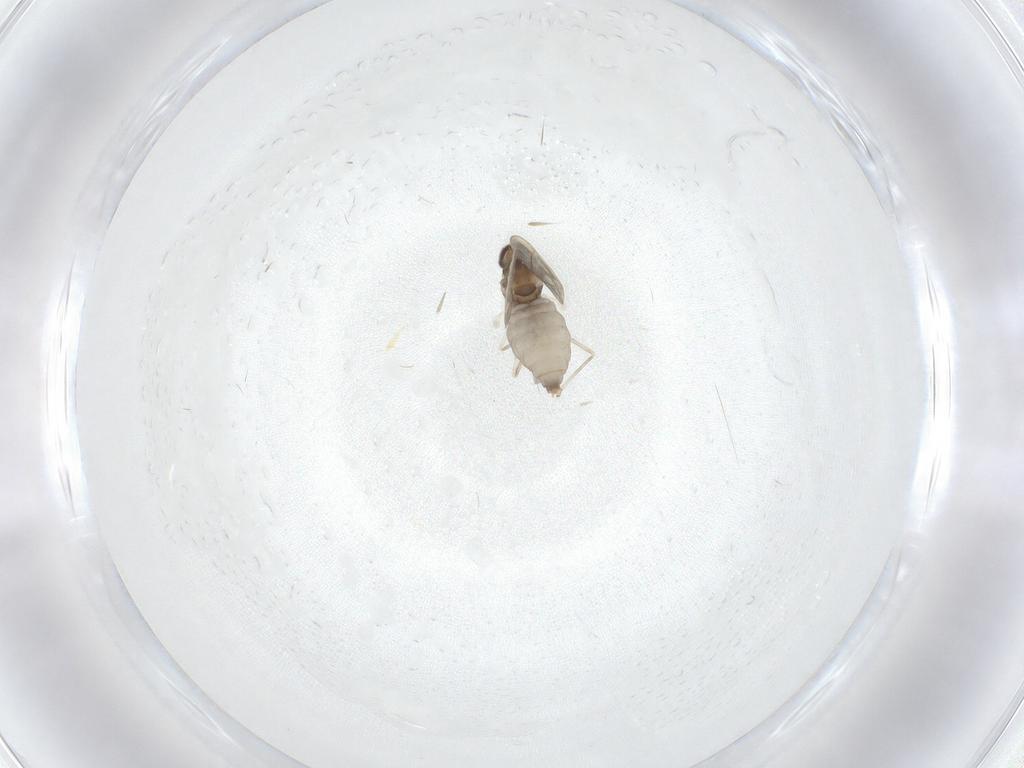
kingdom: Animalia
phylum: Arthropoda
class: Insecta
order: Diptera
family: Cecidomyiidae
